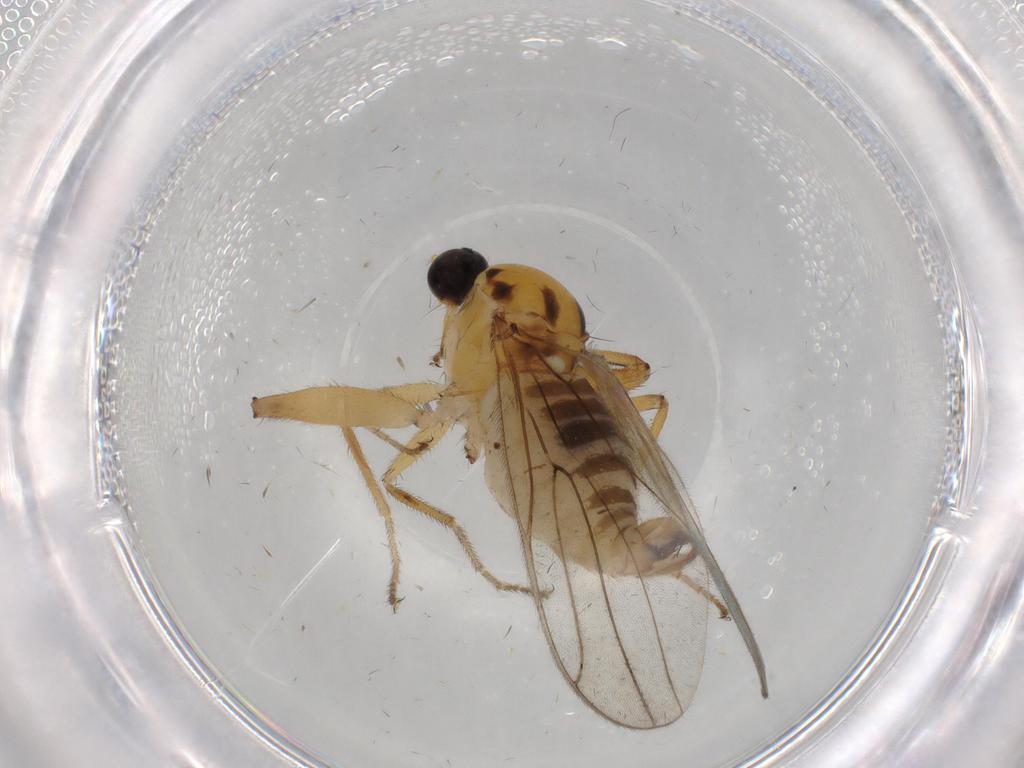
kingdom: Animalia
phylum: Arthropoda
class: Insecta
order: Diptera
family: Hybotidae
